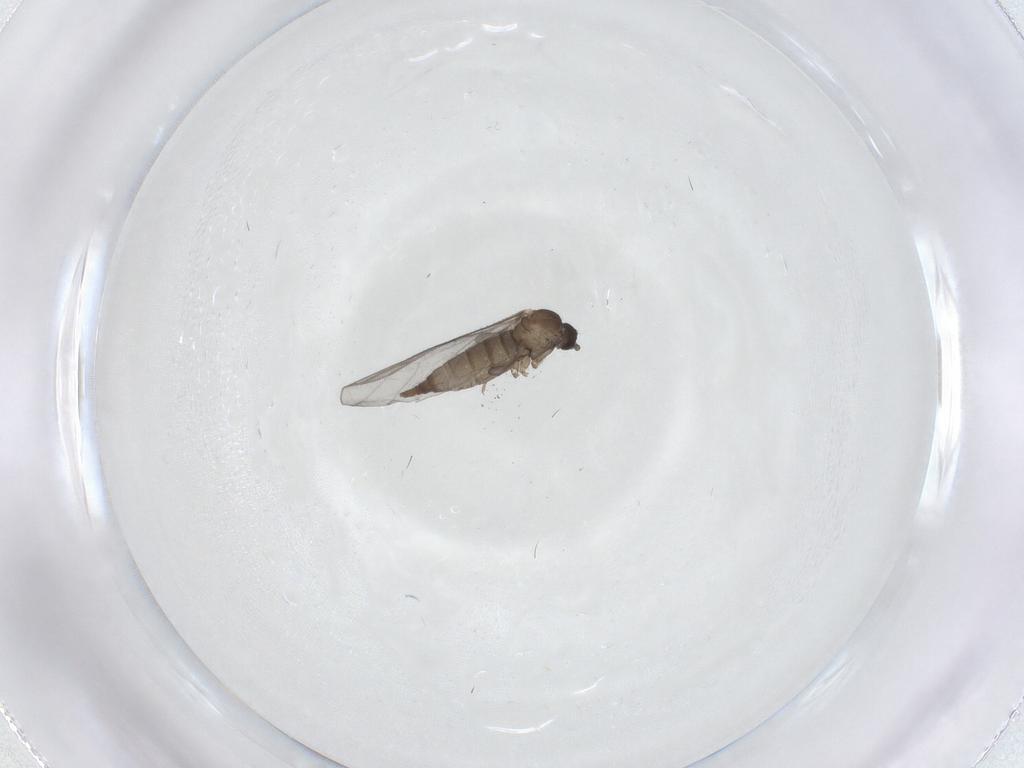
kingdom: Animalia
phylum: Arthropoda
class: Insecta
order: Diptera
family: Sciaridae
